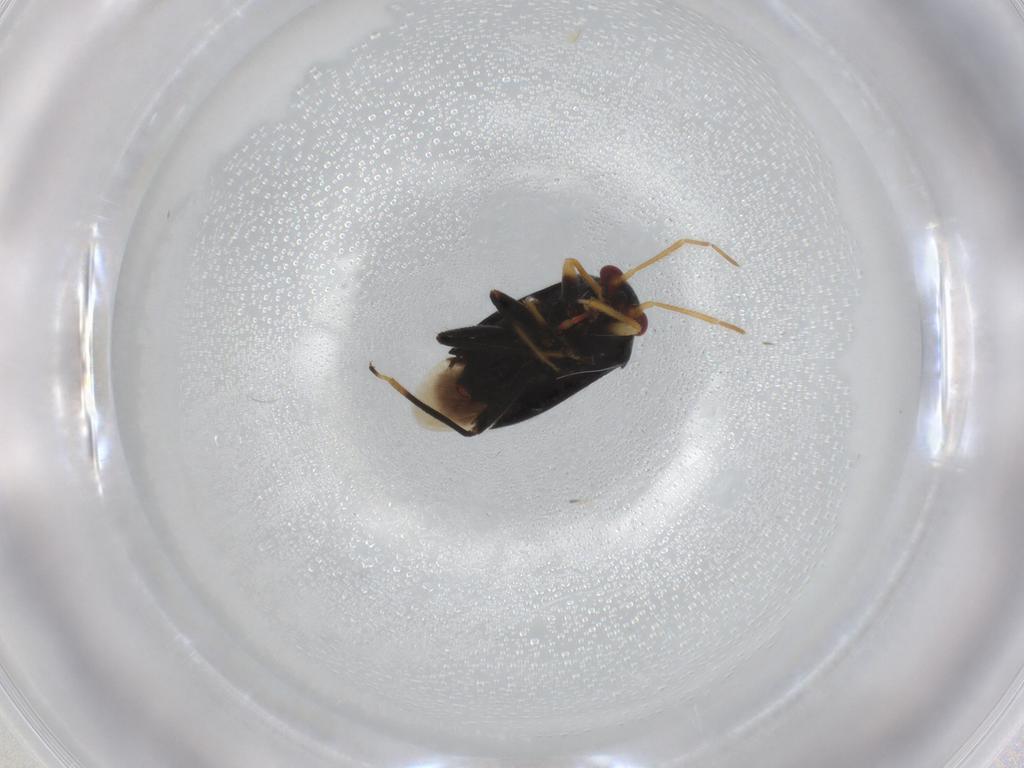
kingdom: Animalia
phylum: Arthropoda
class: Insecta
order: Hemiptera
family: Miridae
